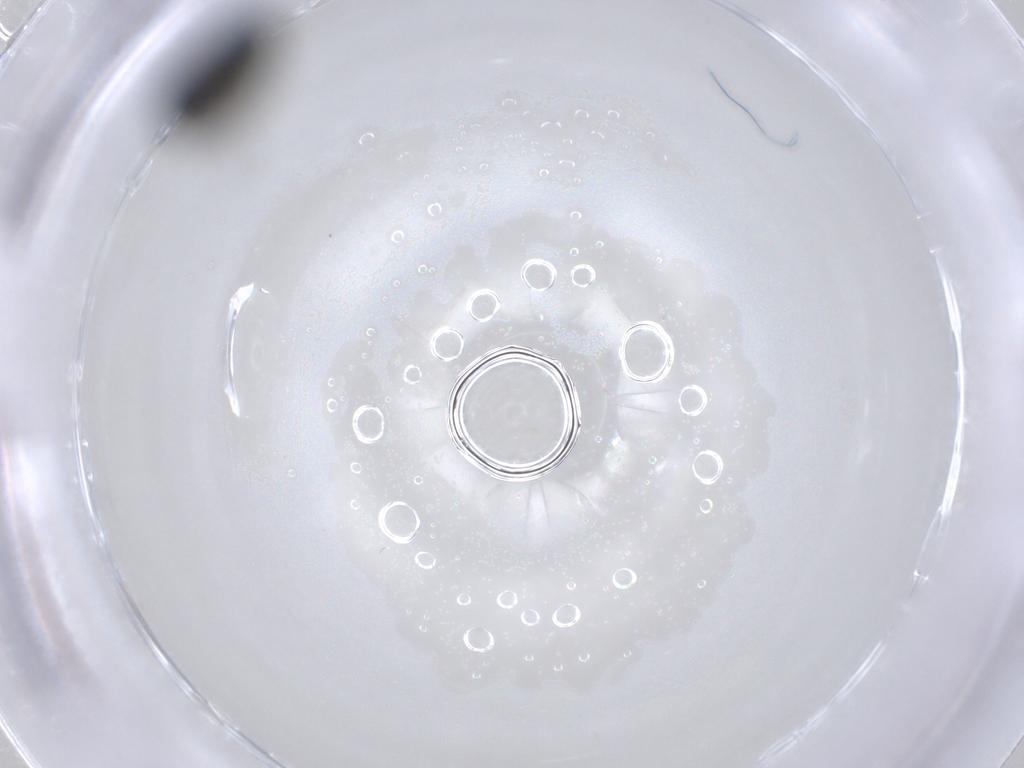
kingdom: Animalia
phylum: Arthropoda
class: Insecta
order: Diptera
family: Agromyzidae
